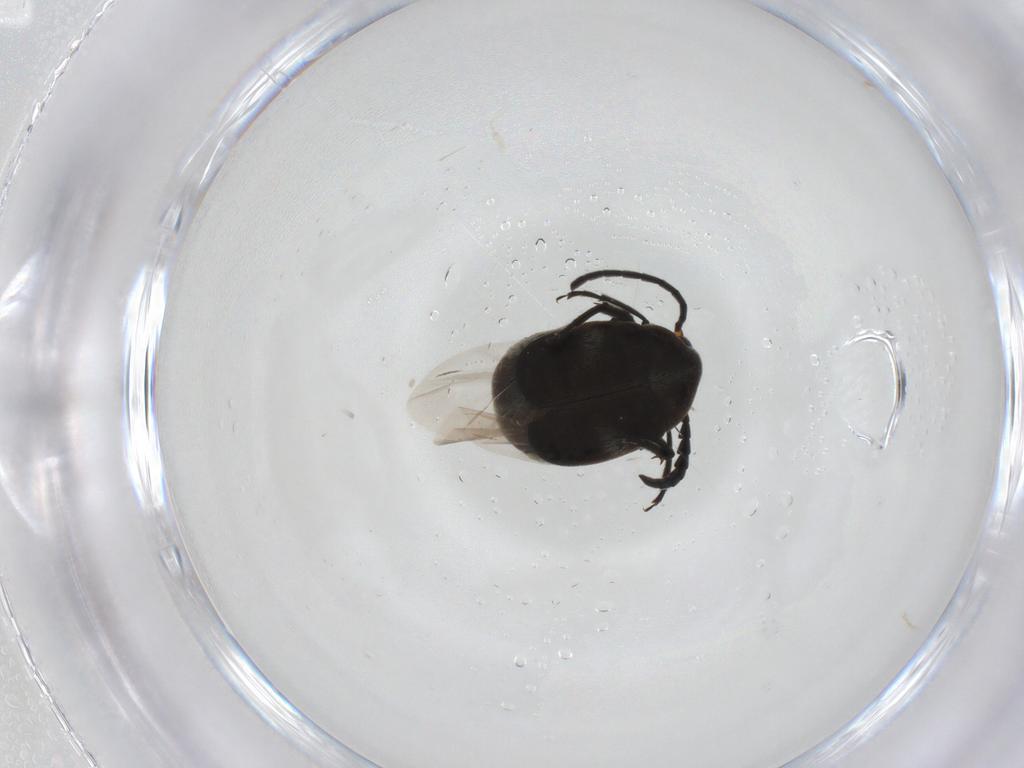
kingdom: Animalia
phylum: Arthropoda
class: Insecta
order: Coleoptera
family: Chrysomelidae
